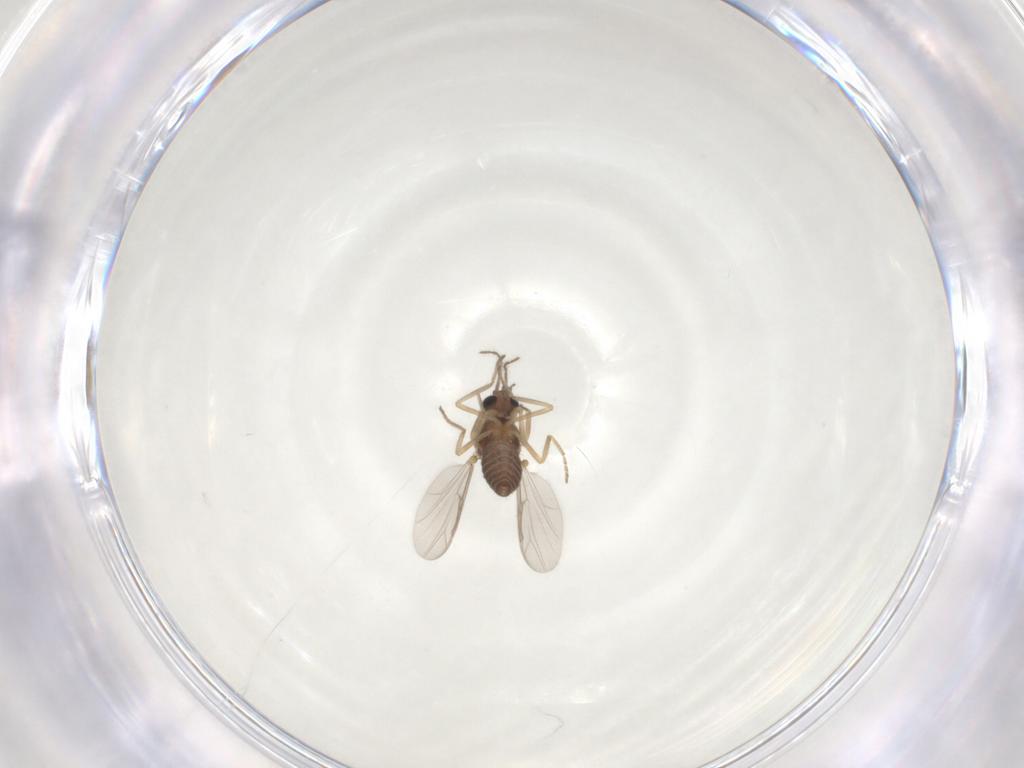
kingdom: Animalia
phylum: Arthropoda
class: Insecta
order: Diptera
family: Ceratopogonidae
